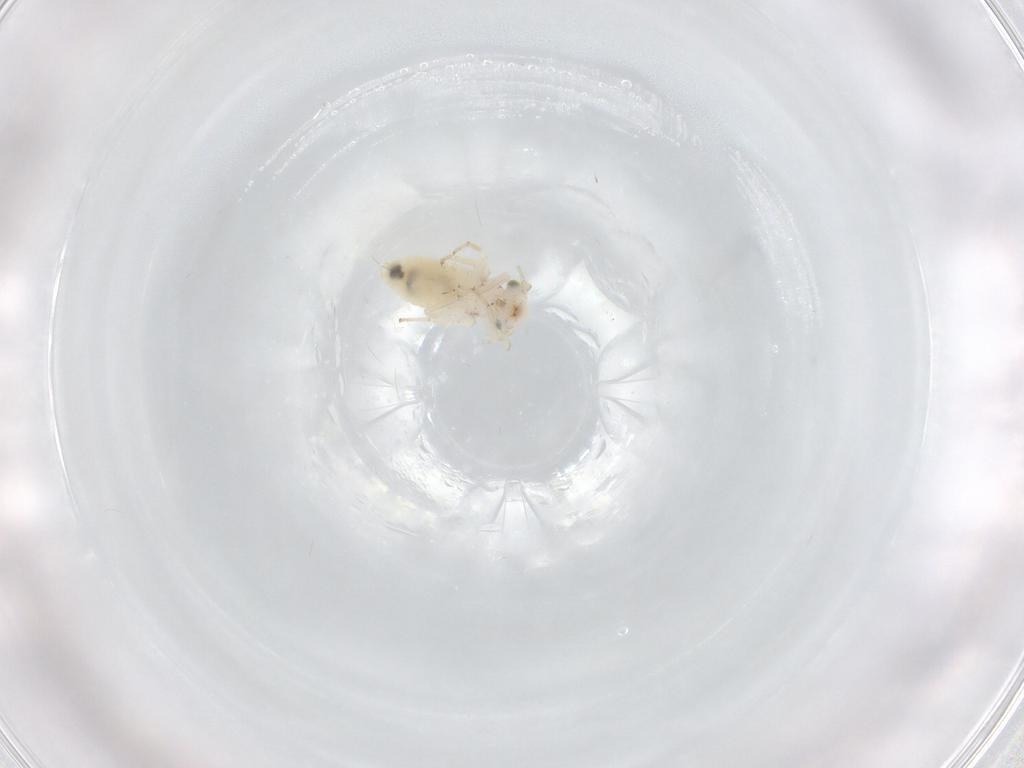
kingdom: Animalia
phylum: Arthropoda
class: Insecta
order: Psocodea
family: Lepidopsocidae
